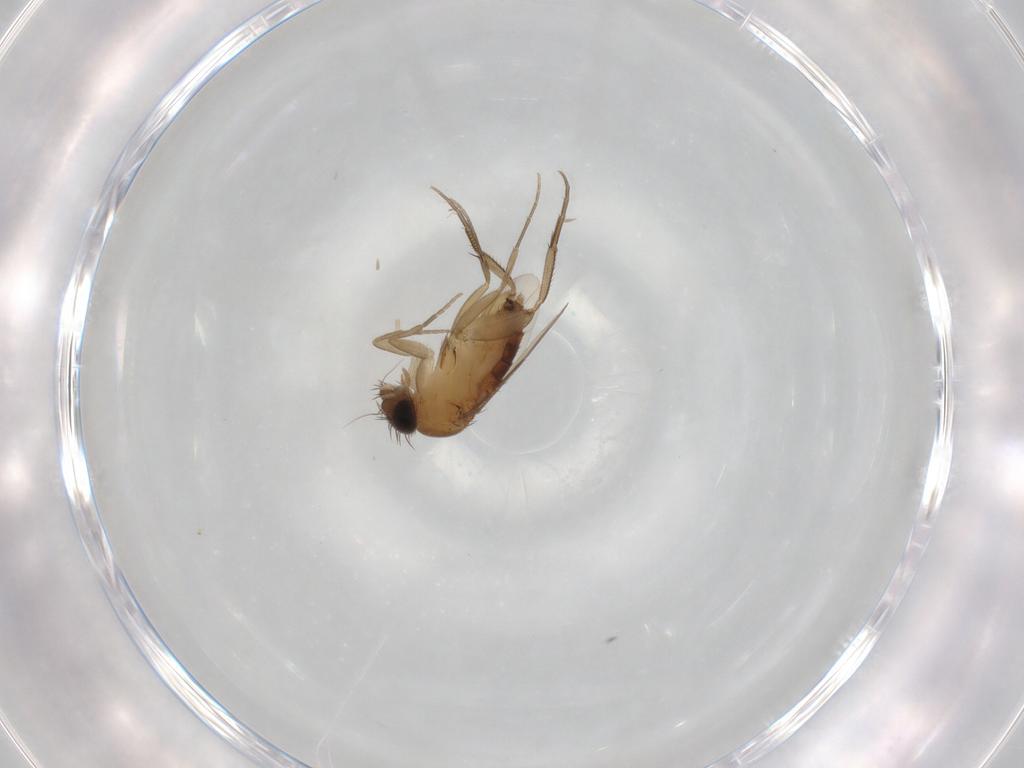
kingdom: Animalia
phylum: Arthropoda
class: Insecta
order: Diptera
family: Phoridae
